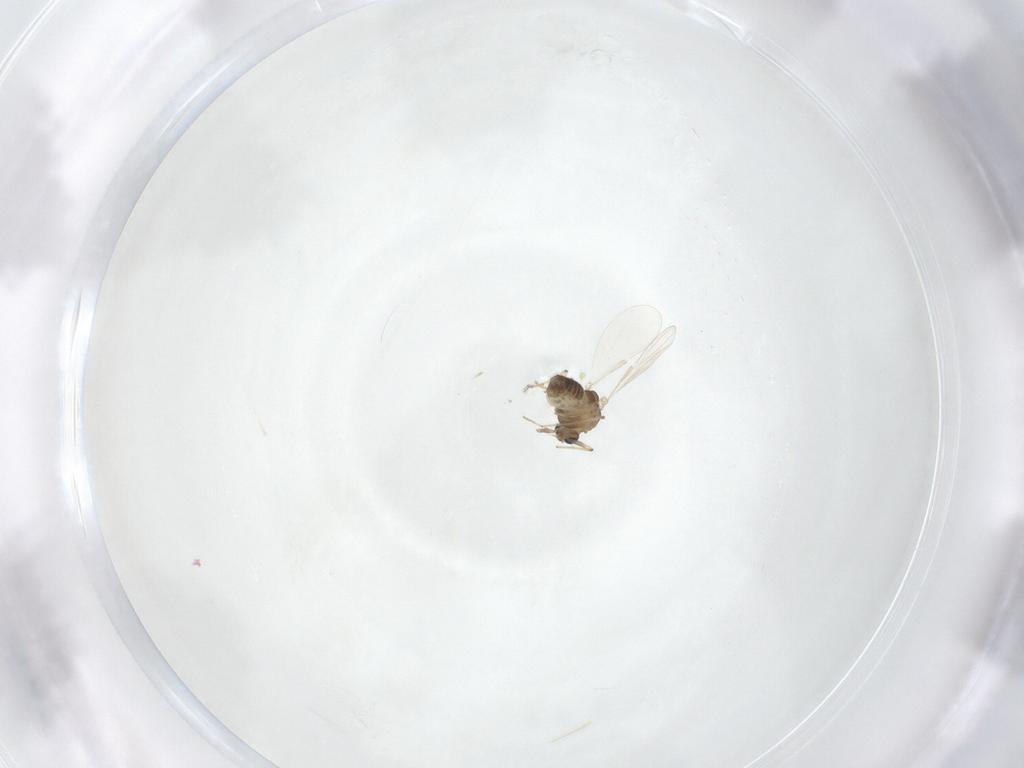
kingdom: Animalia
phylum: Arthropoda
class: Insecta
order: Diptera
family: Chironomidae
